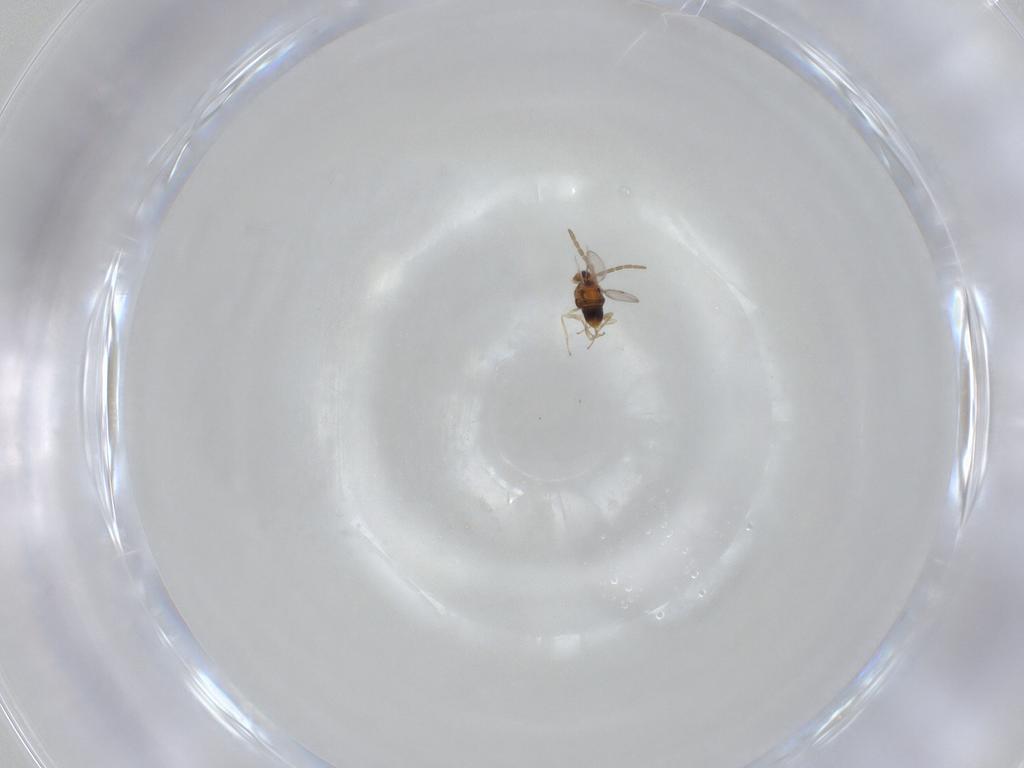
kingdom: Animalia
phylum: Arthropoda
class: Insecta
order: Hymenoptera
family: Aphelinidae
